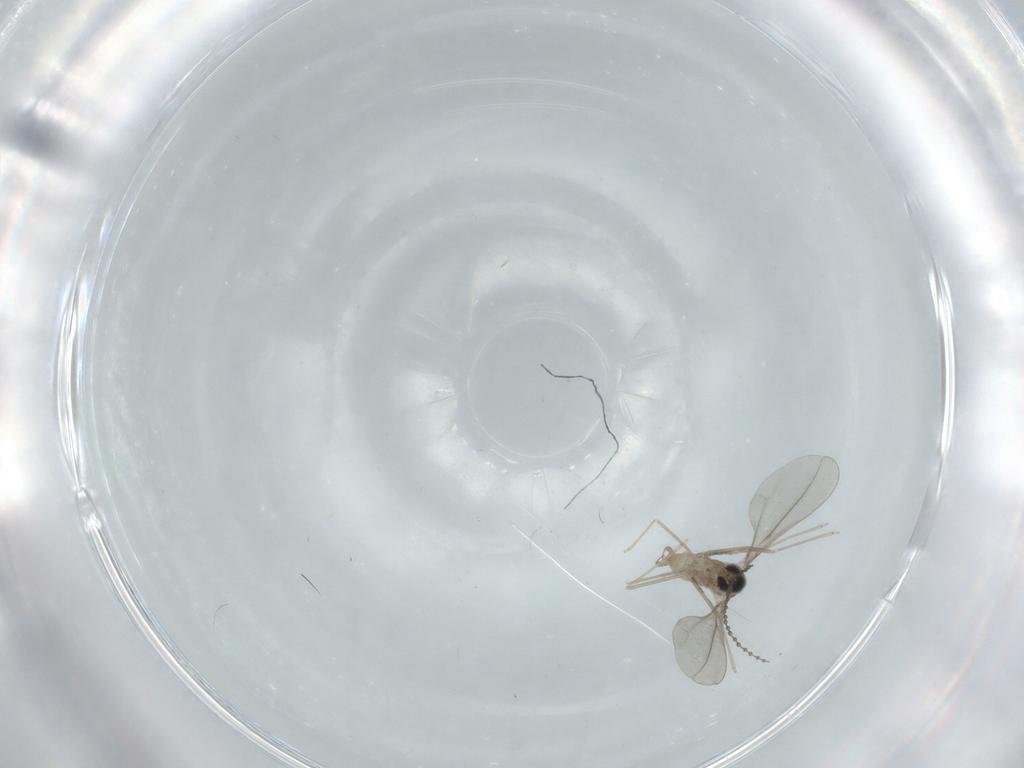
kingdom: Animalia
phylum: Arthropoda
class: Insecta
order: Diptera
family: Cecidomyiidae
